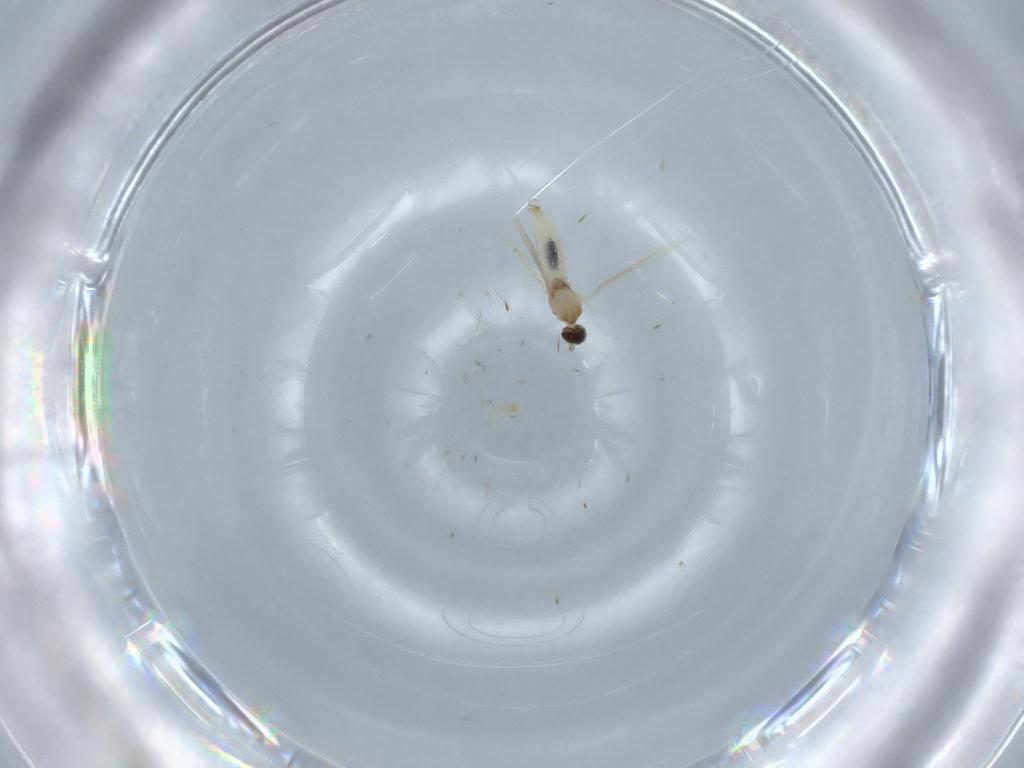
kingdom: Animalia
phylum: Arthropoda
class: Insecta
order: Diptera
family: Cecidomyiidae
